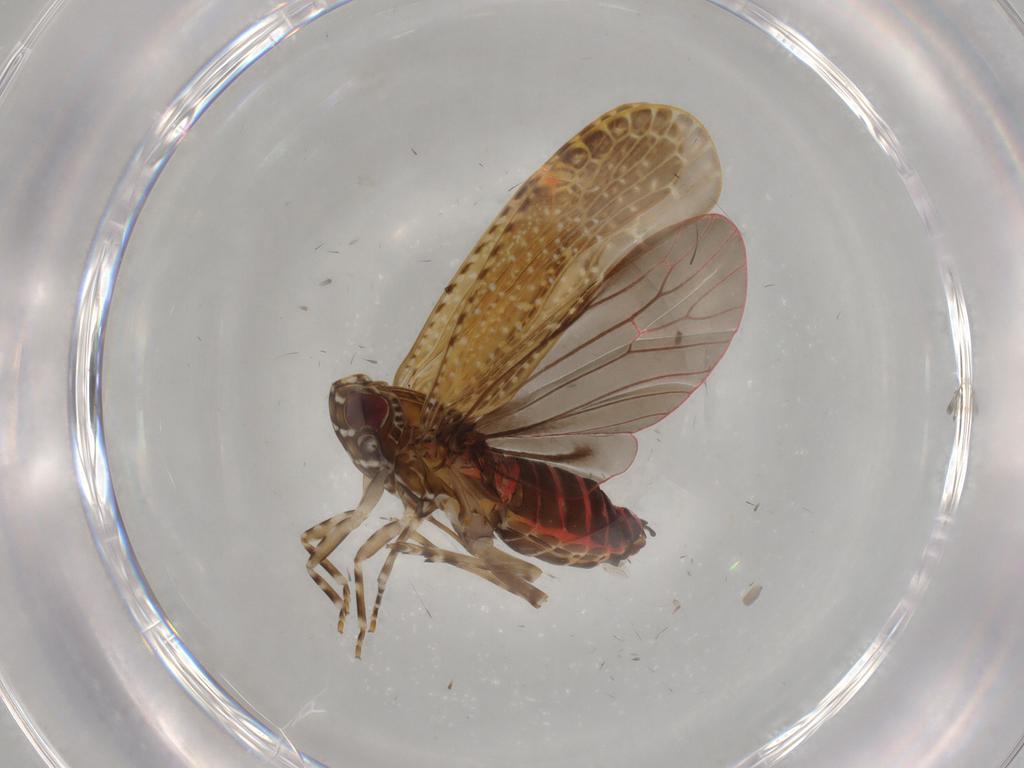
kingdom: Animalia
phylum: Arthropoda
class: Insecta
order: Hemiptera
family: Achilidae
